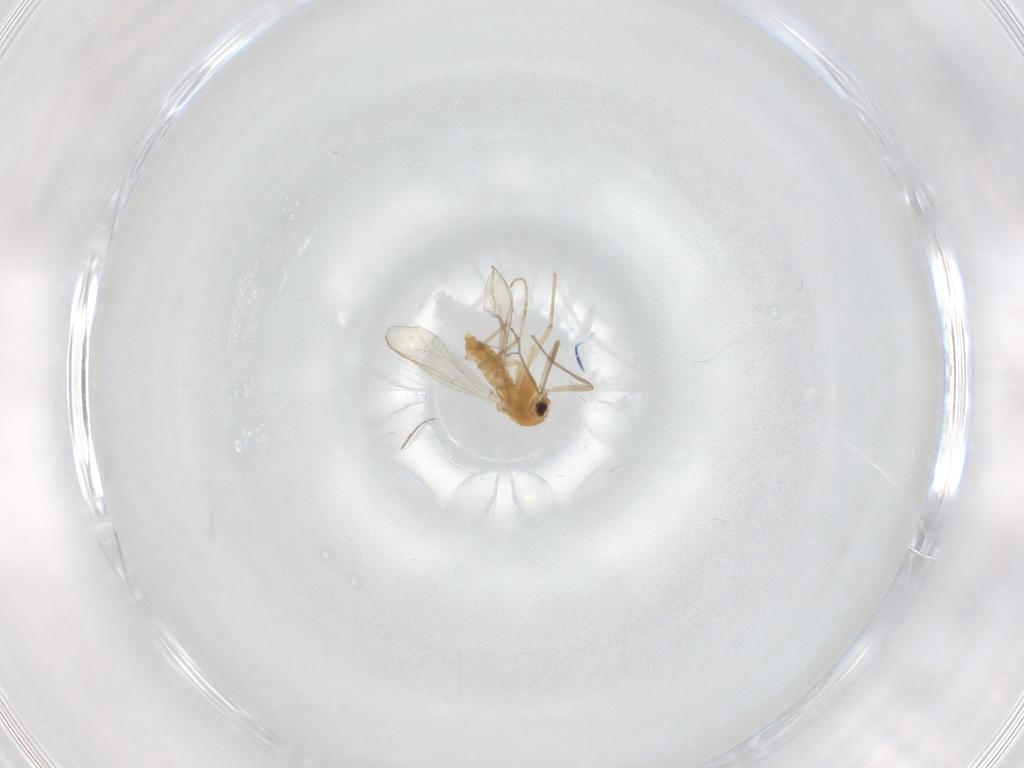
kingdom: Animalia
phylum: Arthropoda
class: Insecta
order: Diptera
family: Chironomidae
